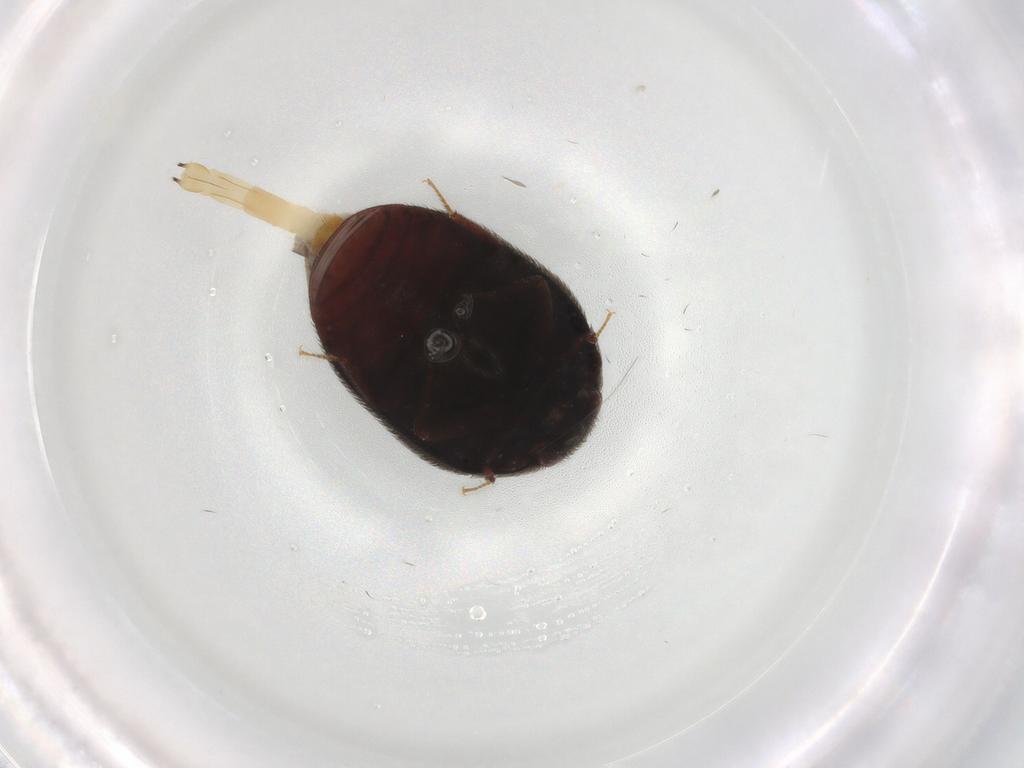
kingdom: Animalia
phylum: Arthropoda
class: Insecta
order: Coleoptera
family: Dermestidae
